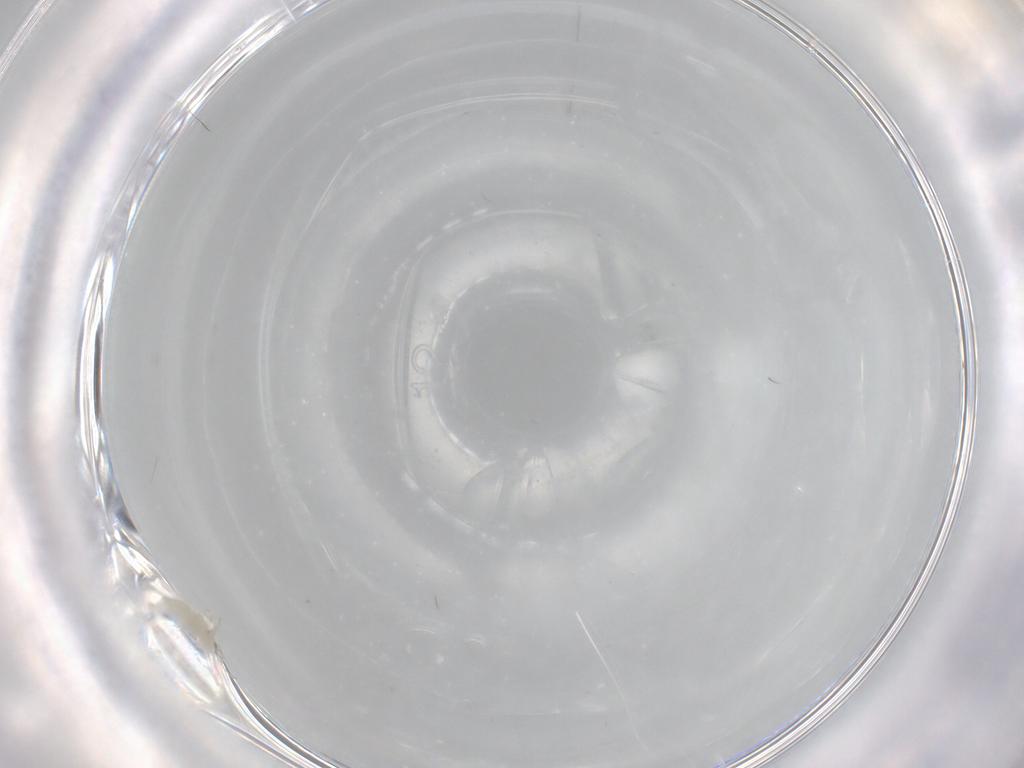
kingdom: Animalia
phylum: Arthropoda
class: Insecta
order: Diptera
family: Cecidomyiidae
